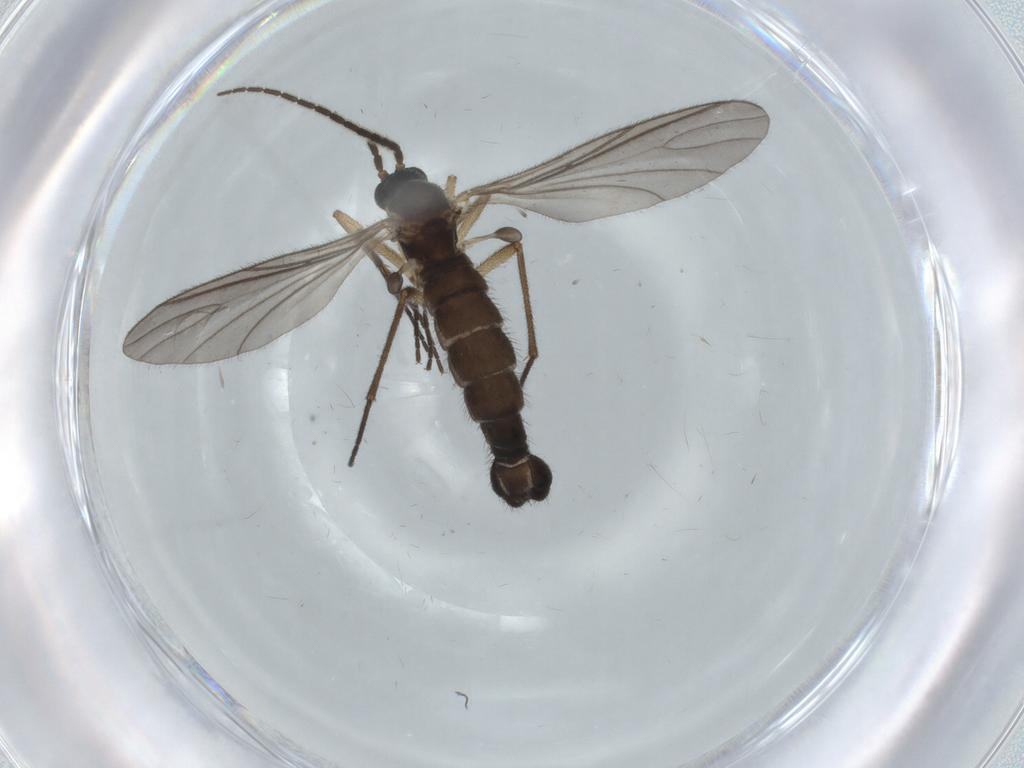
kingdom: Animalia
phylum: Arthropoda
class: Insecta
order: Diptera
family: Sciaridae
